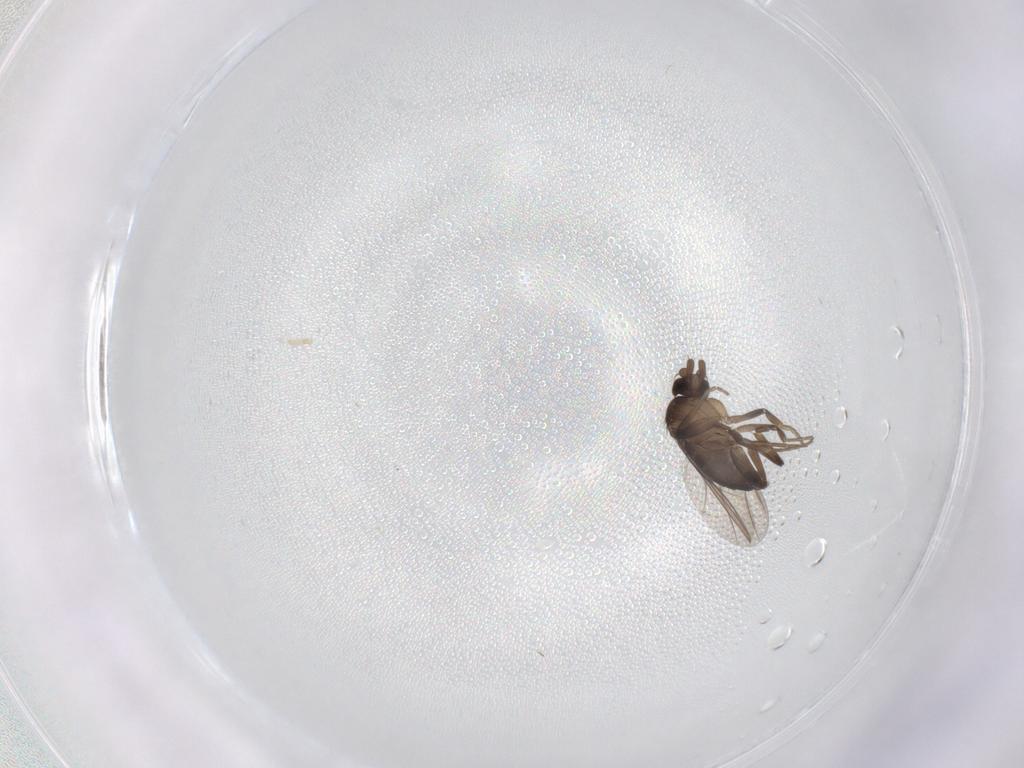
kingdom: Animalia
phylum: Arthropoda
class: Insecta
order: Diptera
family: Phoridae
